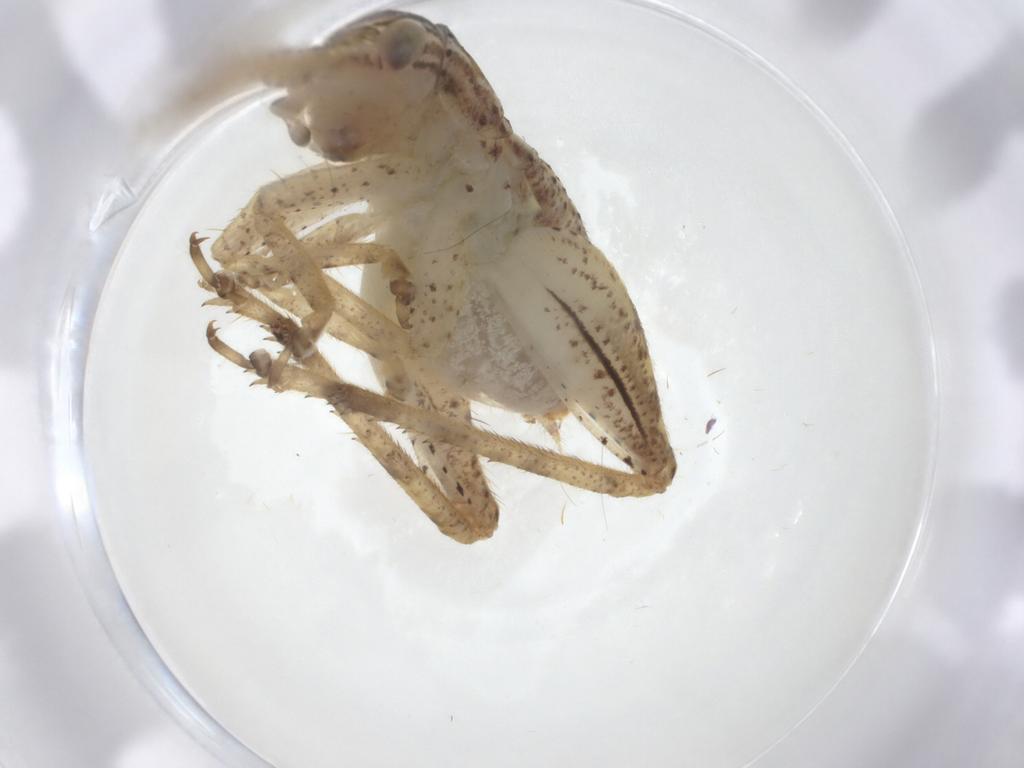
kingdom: Animalia
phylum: Arthropoda
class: Insecta
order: Orthoptera
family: Gryllidae
